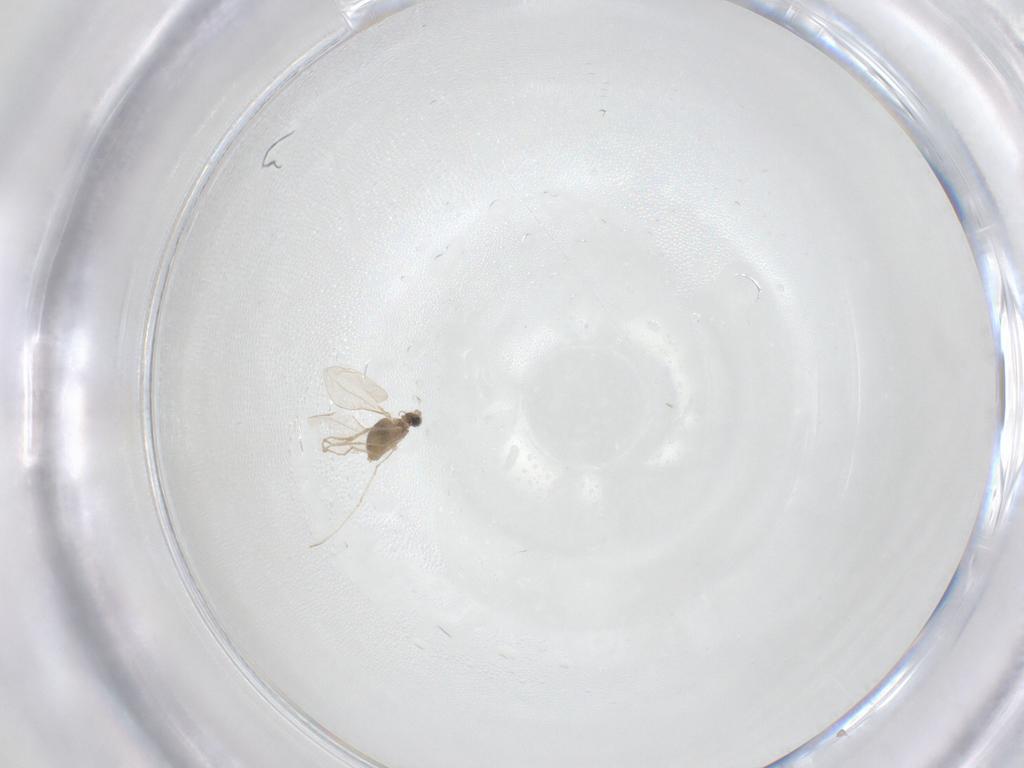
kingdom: Animalia
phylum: Arthropoda
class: Insecta
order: Diptera
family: Cecidomyiidae
